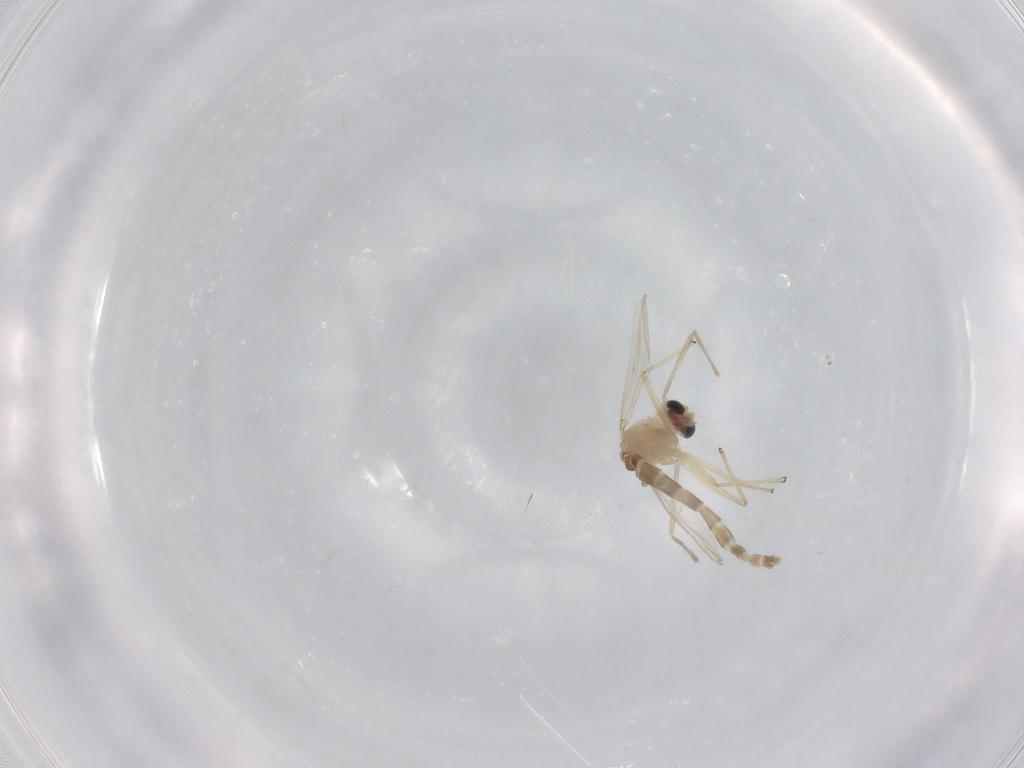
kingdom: Animalia
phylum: Arthropoda
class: Insecta
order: Diptera
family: Chironomidae
